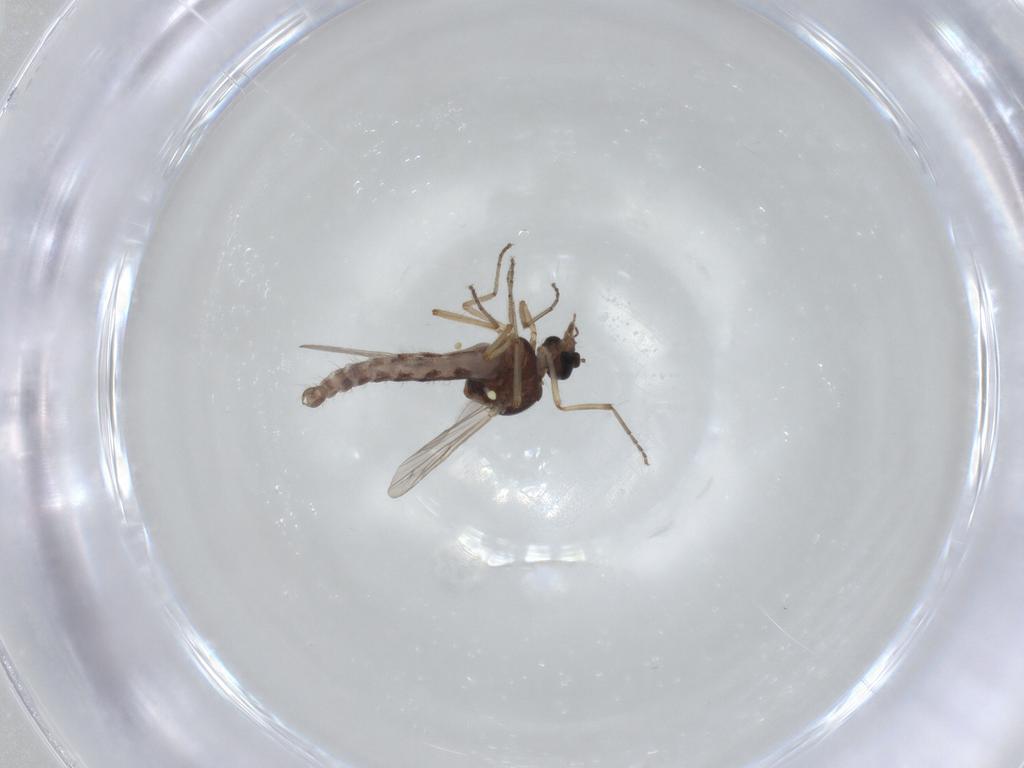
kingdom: Animalia
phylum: Arthropoda
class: Insecta
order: Diptera
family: Ceratopogonidae
